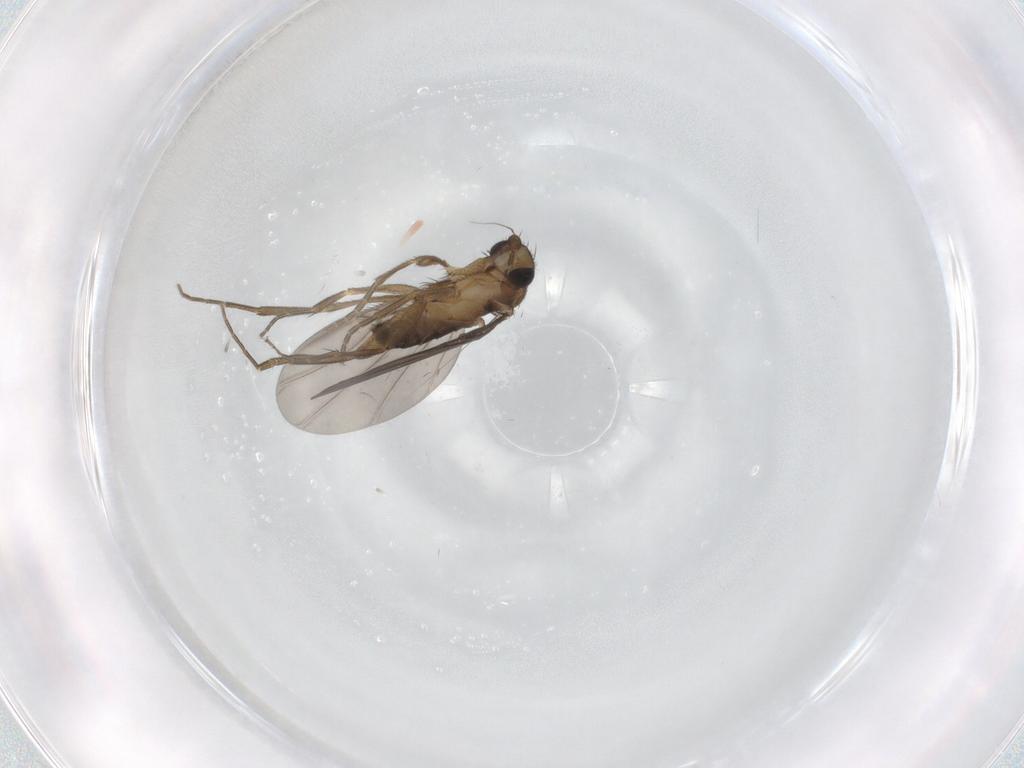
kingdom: Animalia
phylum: Arthropoda
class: Insecta
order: Diptera
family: Phoridae
